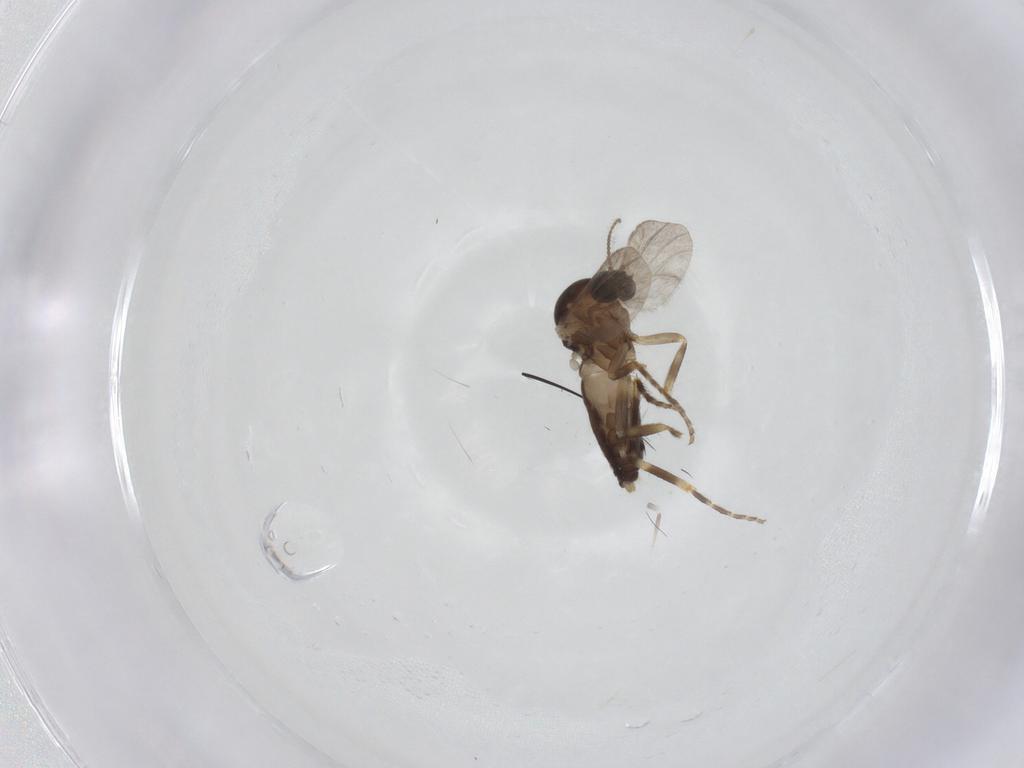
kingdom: Animalia
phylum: Arthropoda
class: Insecta
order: Diptera
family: Ceratopogonidae
